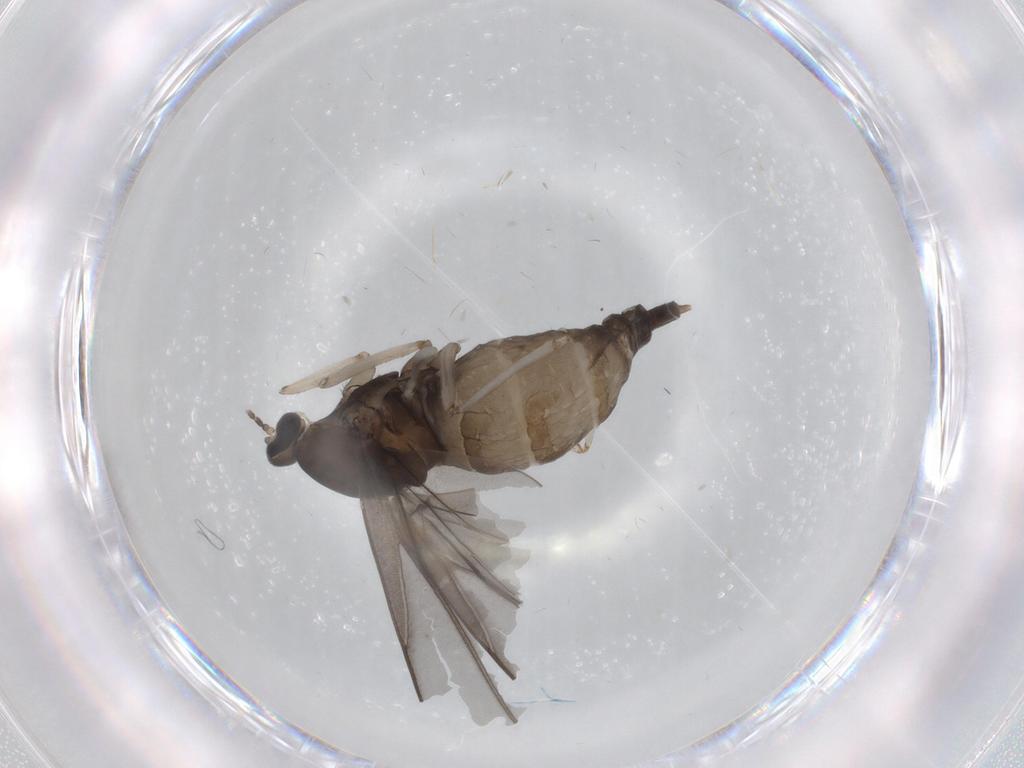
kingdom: Animalia
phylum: Arthropoda
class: Insecta
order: Diptera
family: Cecidomyiidae
